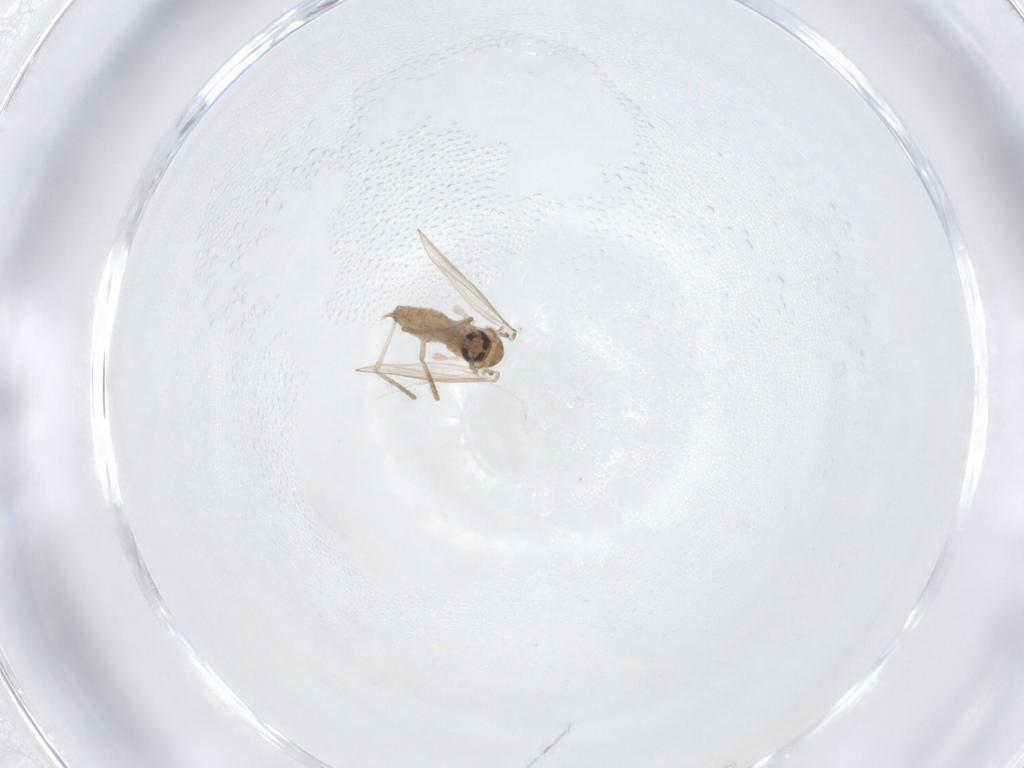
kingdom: Animalia
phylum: Arthropoda
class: Insecta
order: Diptera
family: Psychodidae
